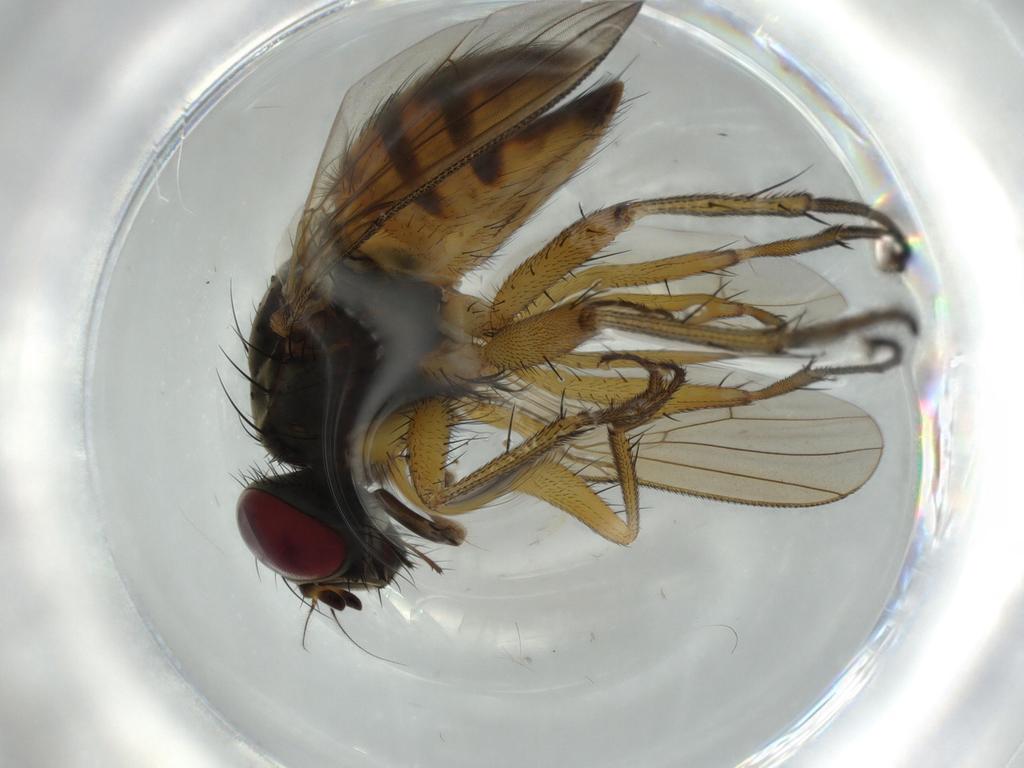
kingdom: Animalia
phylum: Arthropoda
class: Insecta
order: Diptera
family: Muscidae
